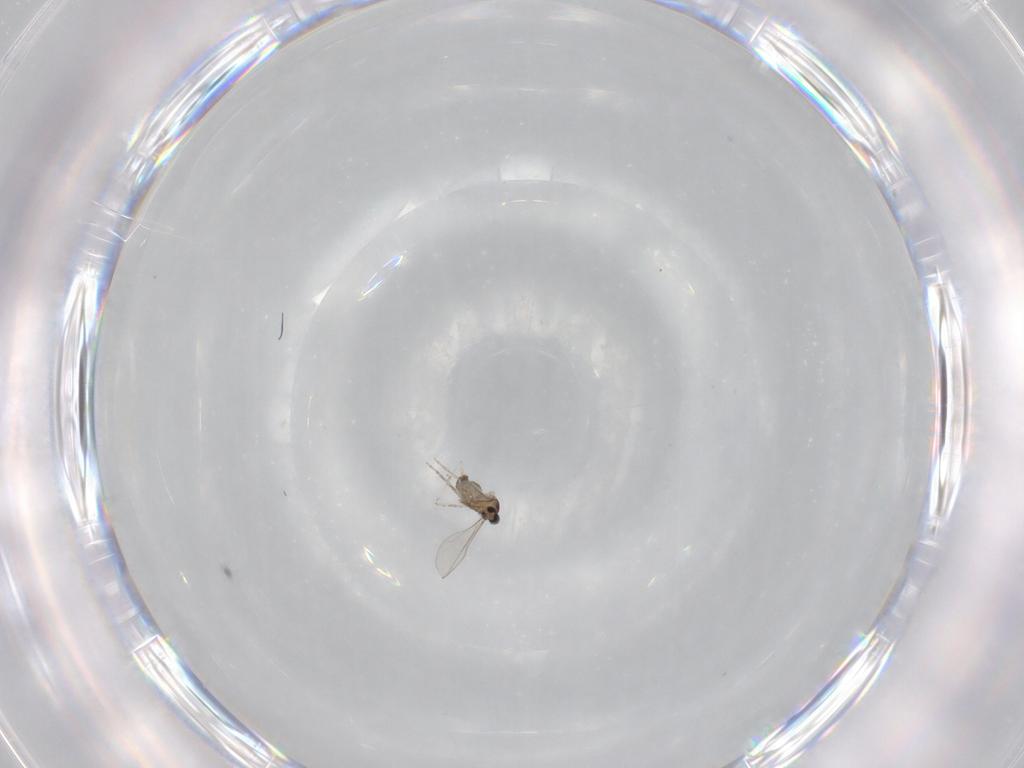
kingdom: Animalia
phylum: Arthropoda
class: Insecta
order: Diptera
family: Cecidomyiidae
